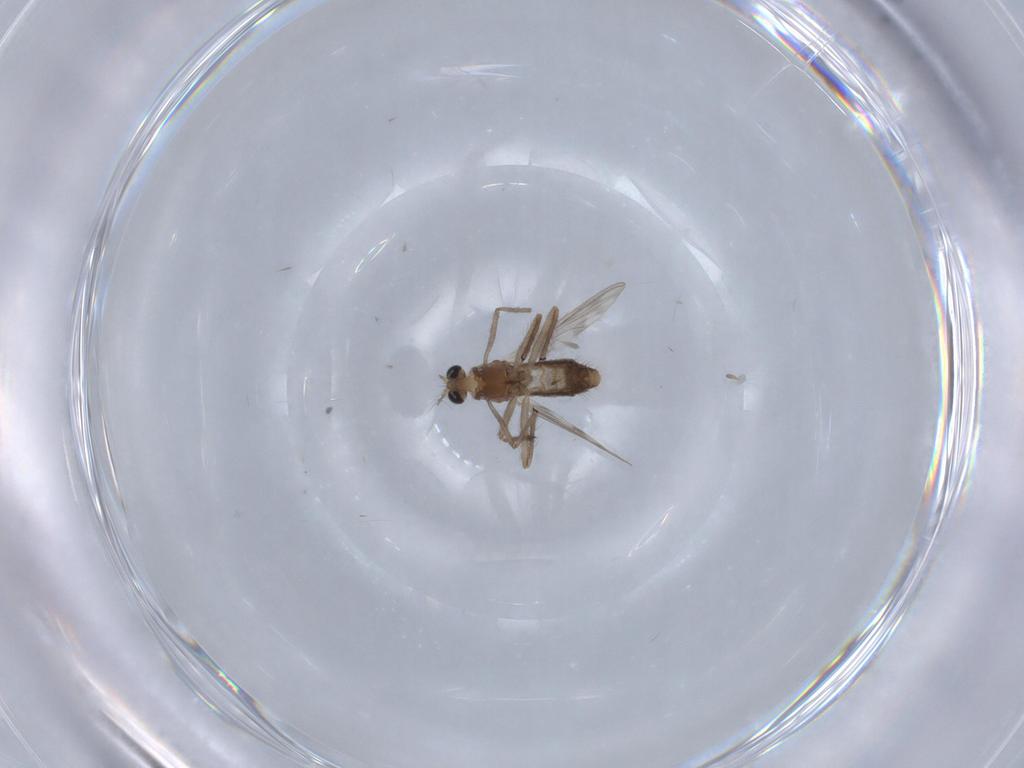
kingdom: Animalia
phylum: Arthropoda
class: Insecta
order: Diptera
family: Chironomidae
